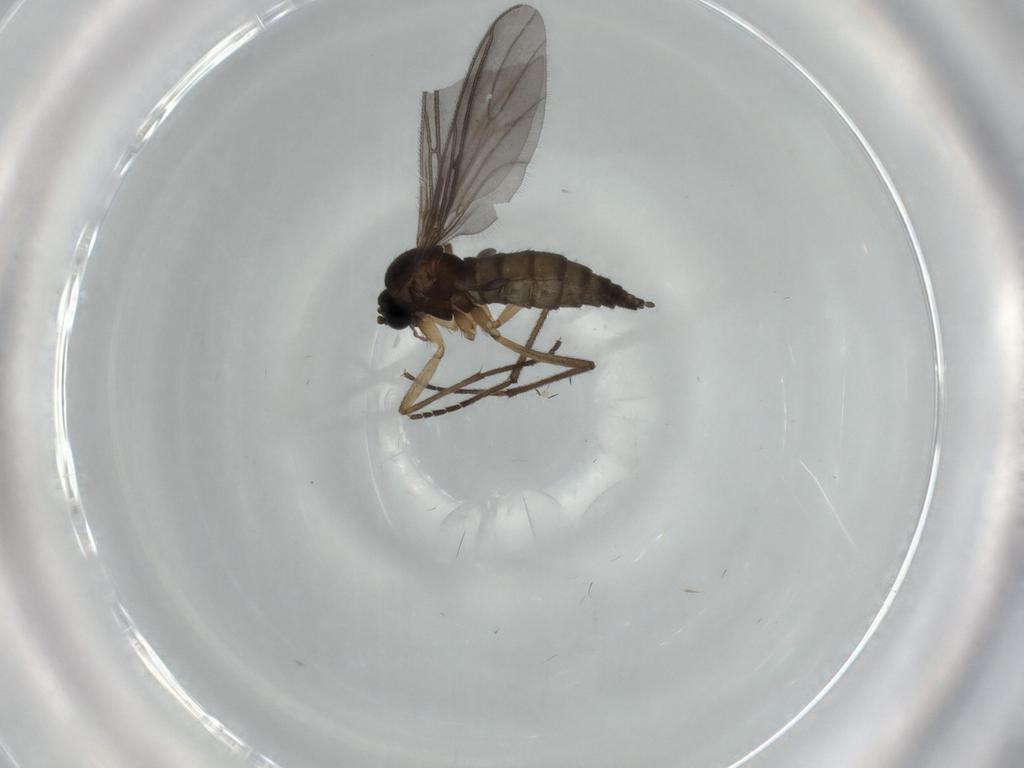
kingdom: Animalia
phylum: Arthropoda
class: Insecta
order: Diptera
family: Sciaridae
